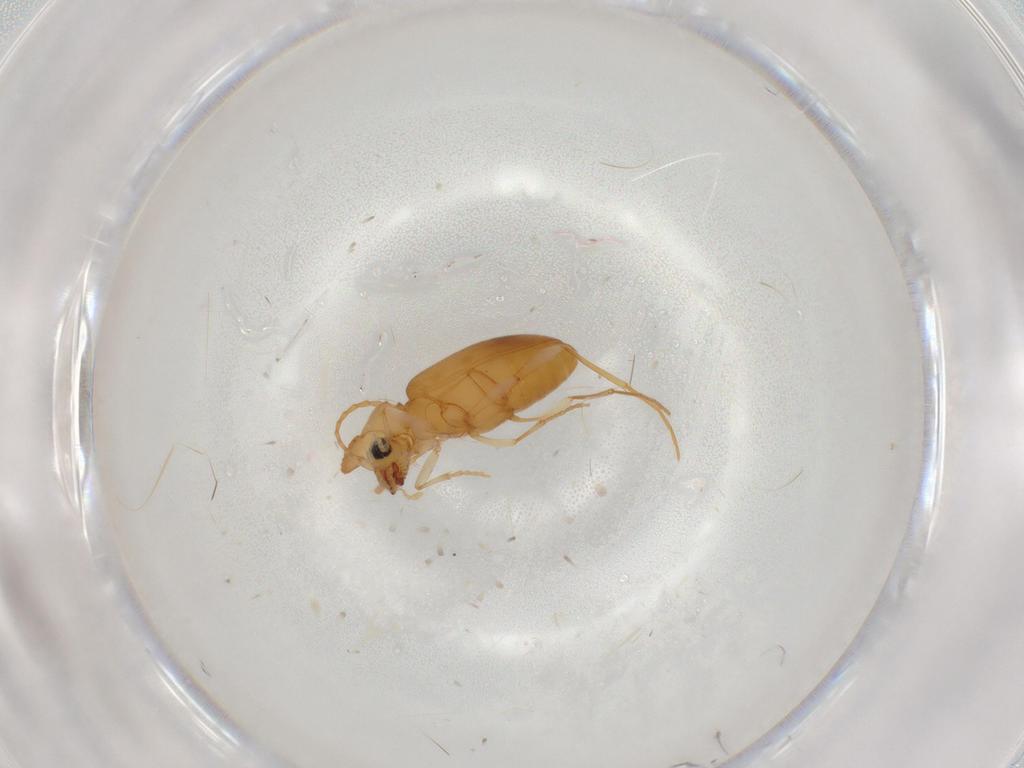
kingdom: Animalia
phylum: Arthropoda
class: Insecta
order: Coleoptera
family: Anthicidae
